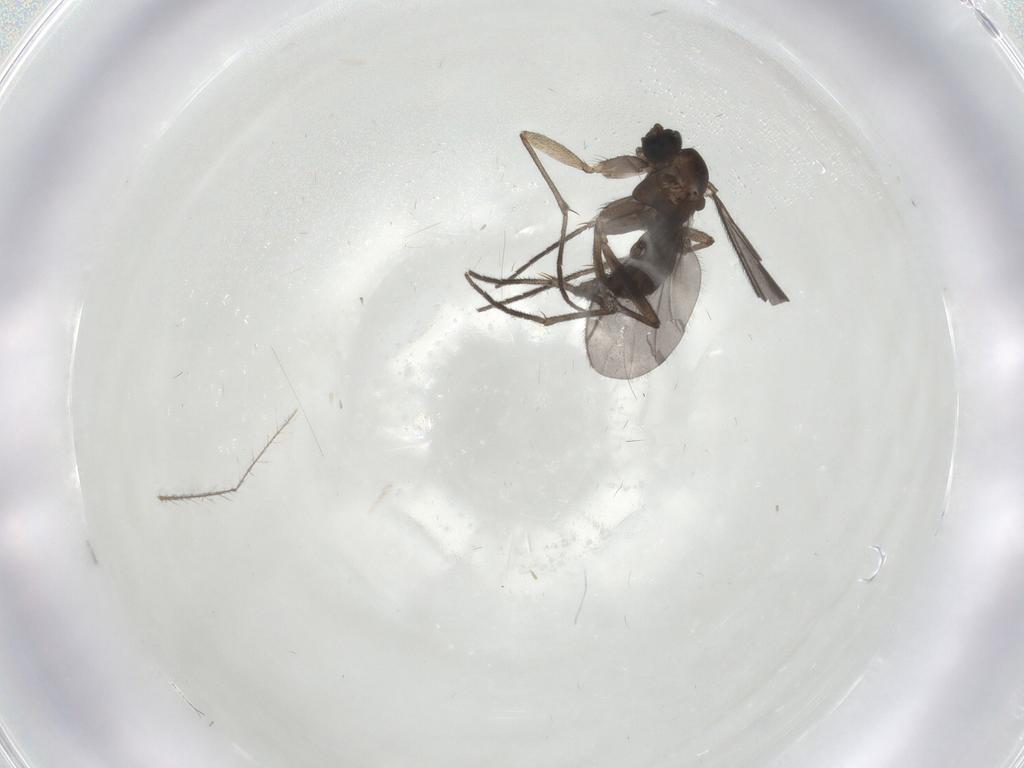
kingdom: Animalia
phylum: Arthropoda
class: Insecta
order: Diptera
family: Sciaridae
